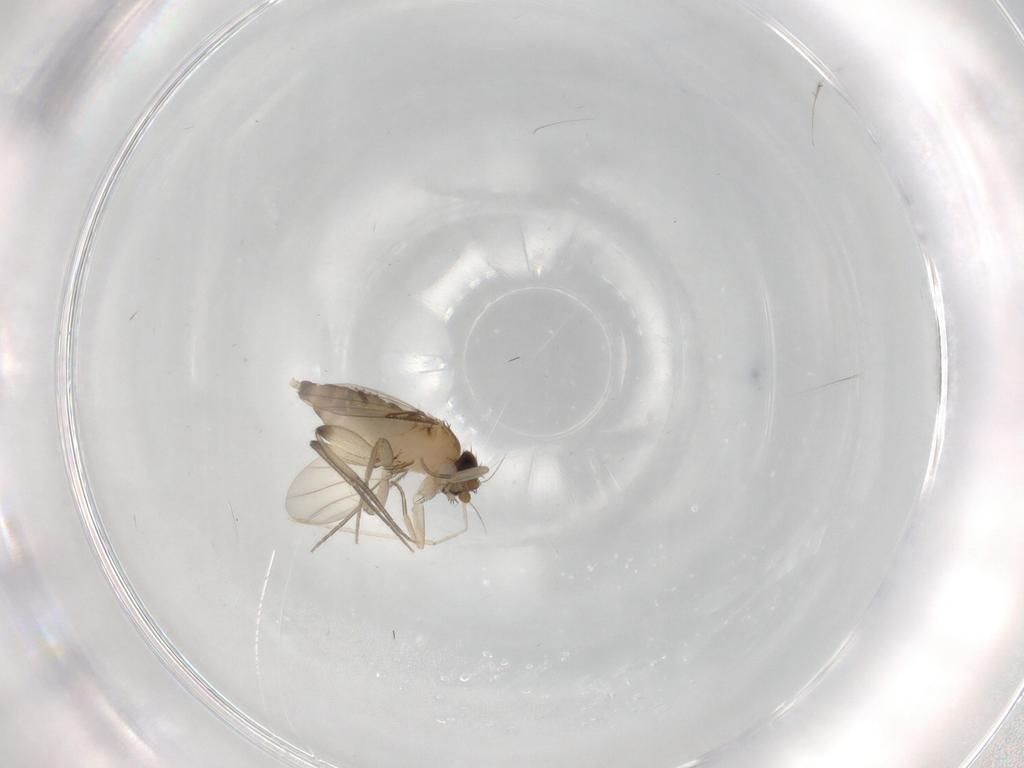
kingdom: Animalia
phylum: Arthropoda
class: Insecta
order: Diptera
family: Phoridae
